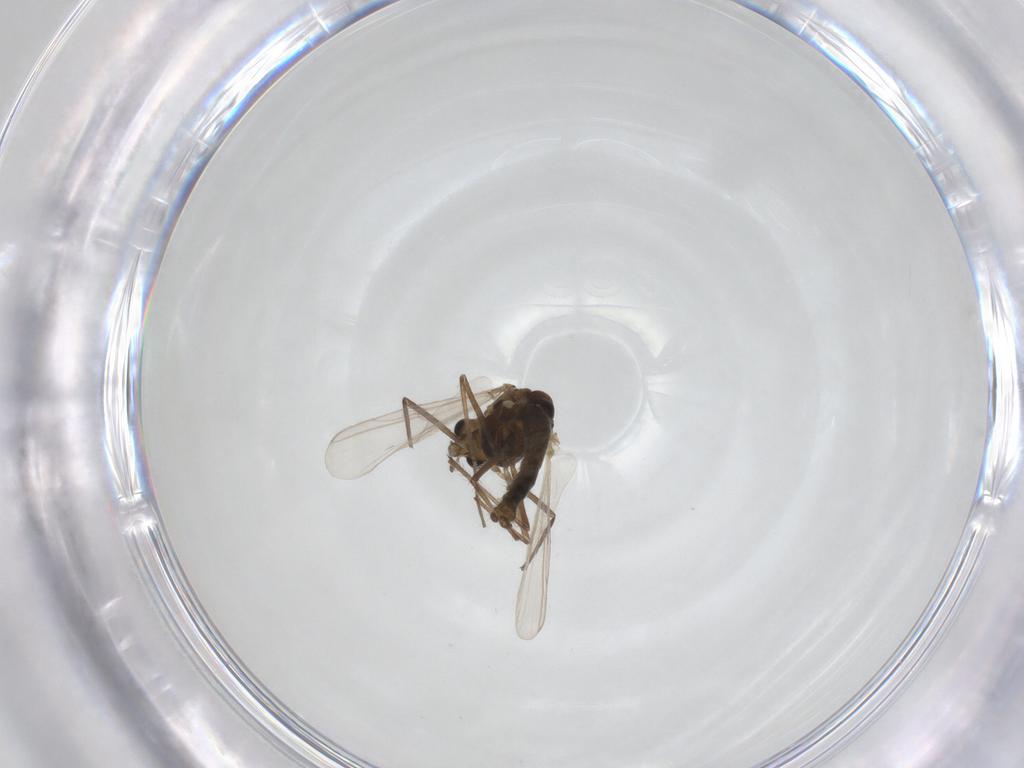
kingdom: Animalia
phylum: Arthropoda
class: Insecta
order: Diptera
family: Chironomidae
